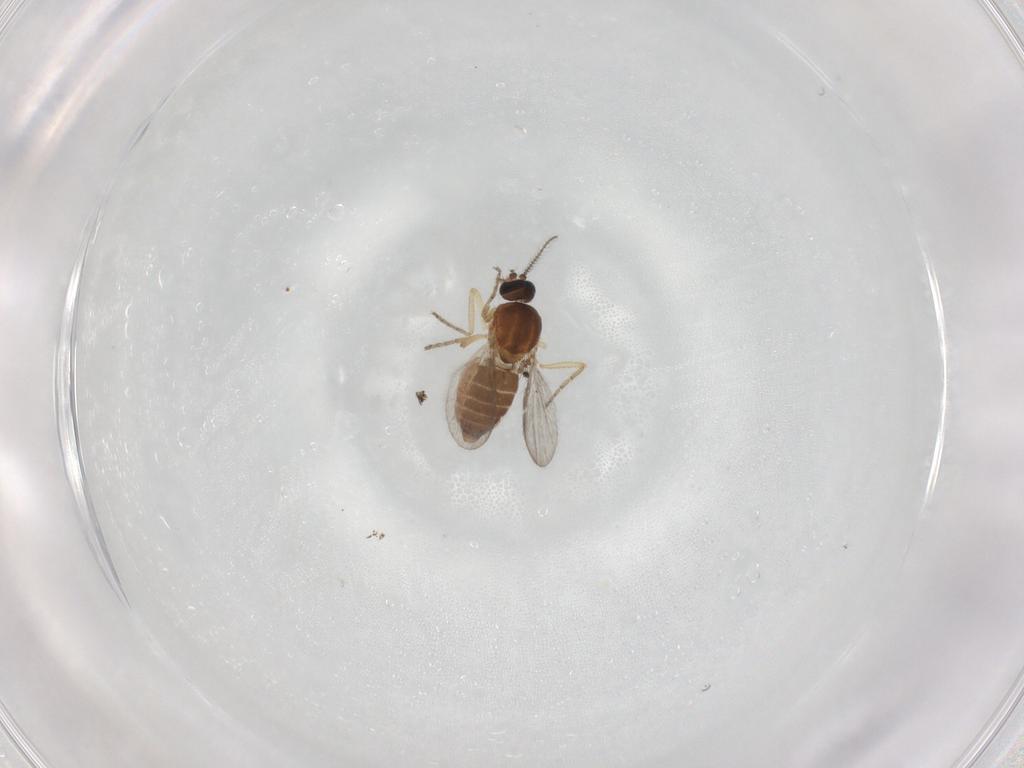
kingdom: Animalia
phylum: Arthropoda
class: Insecta
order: Diptera
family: Ceratopogonidae
